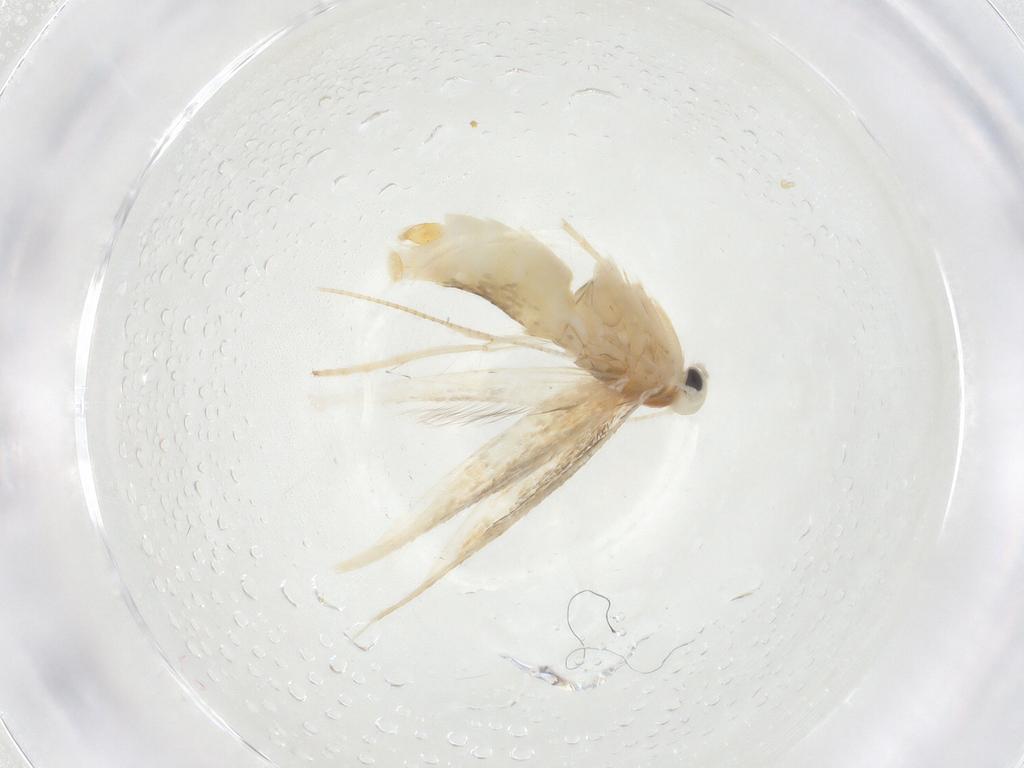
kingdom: Animalia
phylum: Arthropoda
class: Insecta
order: Lepidoptera
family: Gracillariidae
